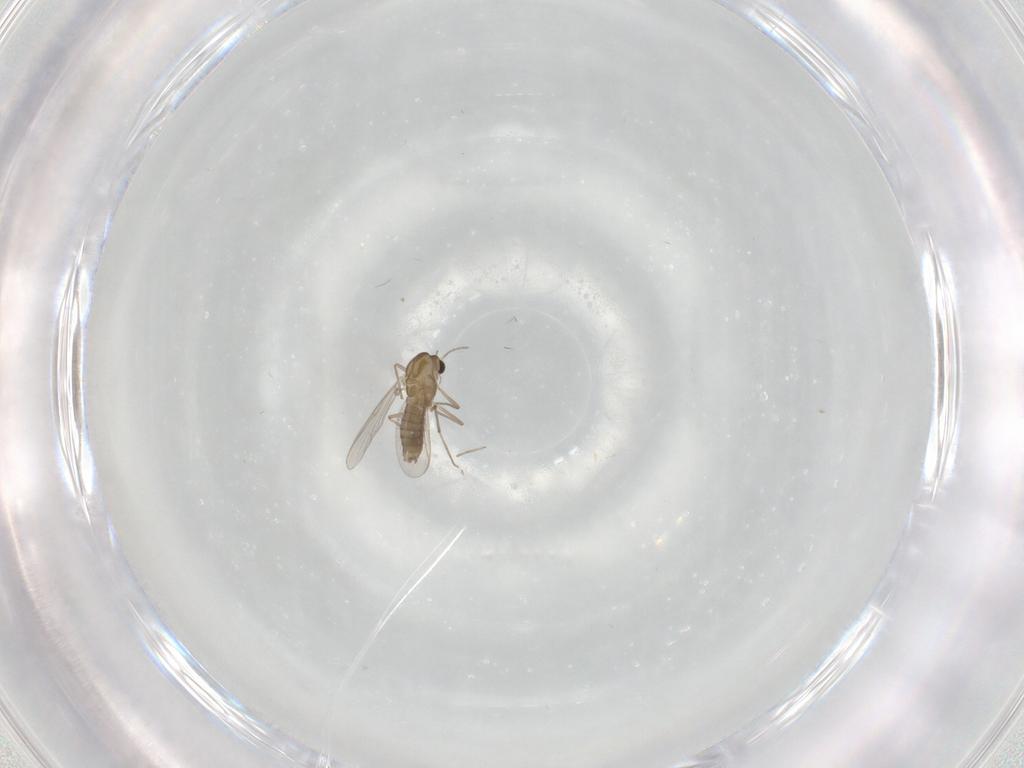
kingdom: Animalia
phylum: Arthropoda
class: Insecta
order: Diptera
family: Chironomidae
